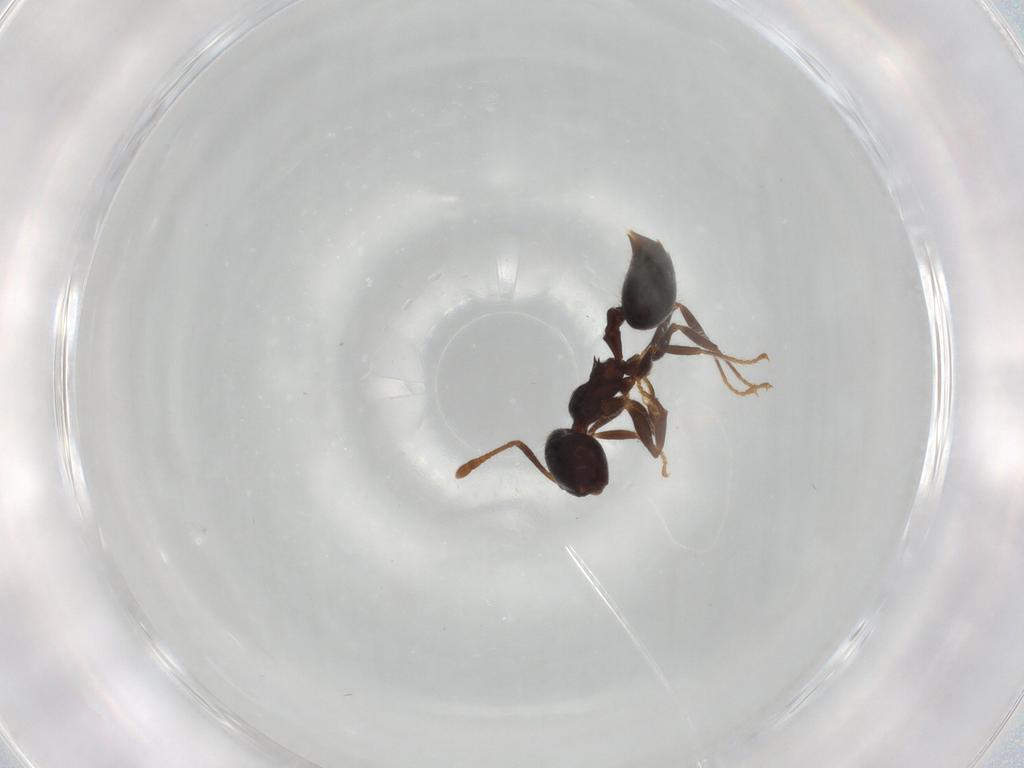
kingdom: Animalia
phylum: Arthropoda
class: Insecta
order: Hymenoptera
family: Formicidae
